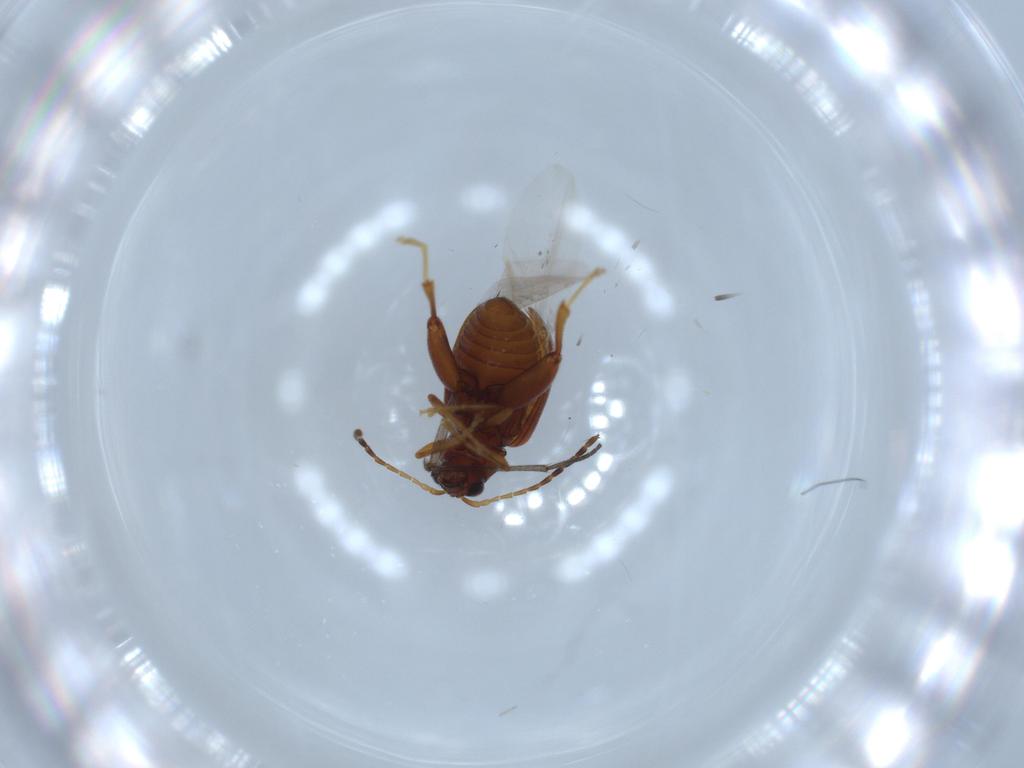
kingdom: Animalia
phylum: Arthropoda
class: Insecta
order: Coleoptera
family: Chrysomelidae
